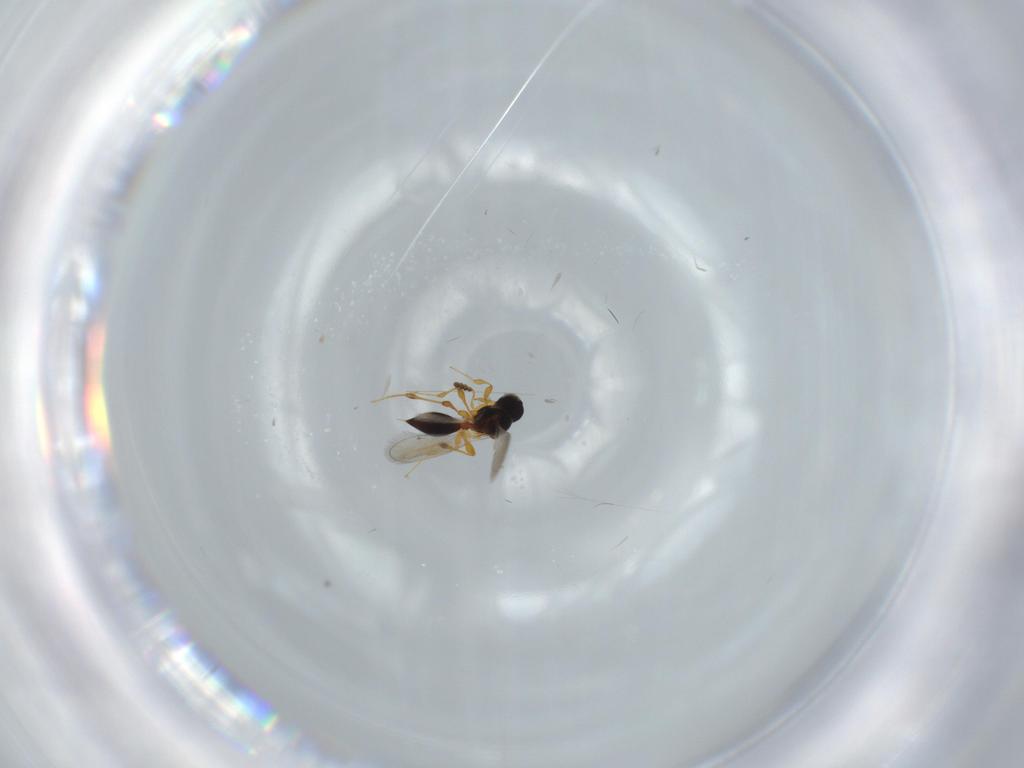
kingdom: Animalia
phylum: Arthropoda
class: Insecta
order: Hymenoptera
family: Platygastridae
